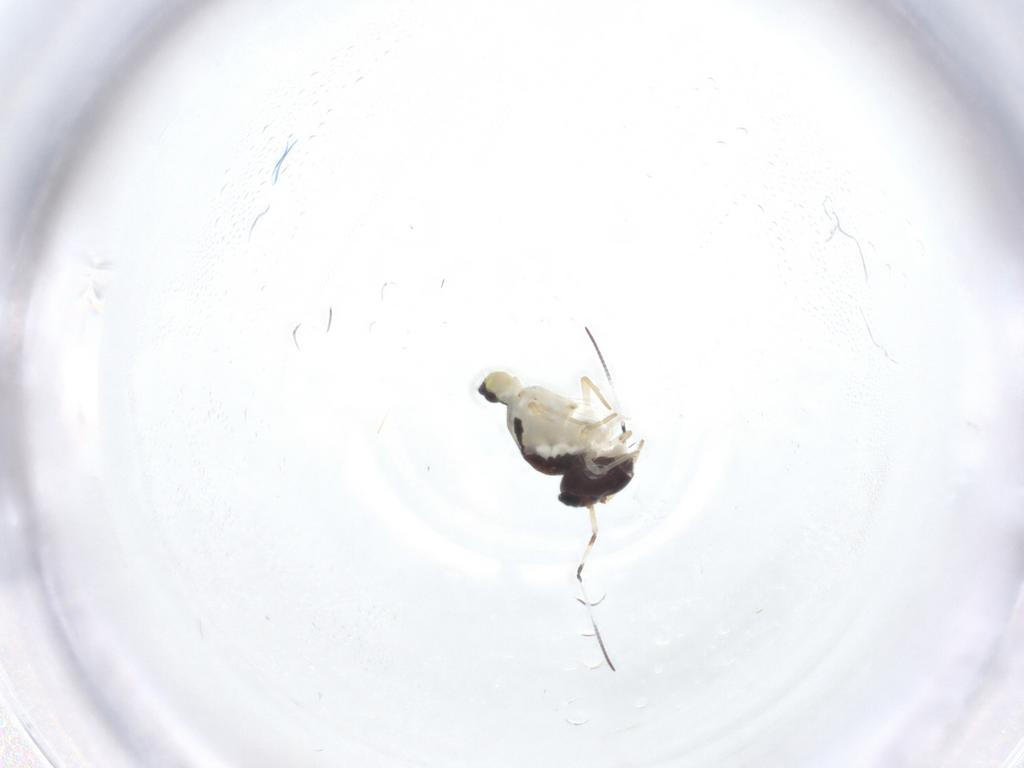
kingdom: Animalia
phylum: Arthropoda
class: Collembola
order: Symphypleona
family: Bourletiellidae
